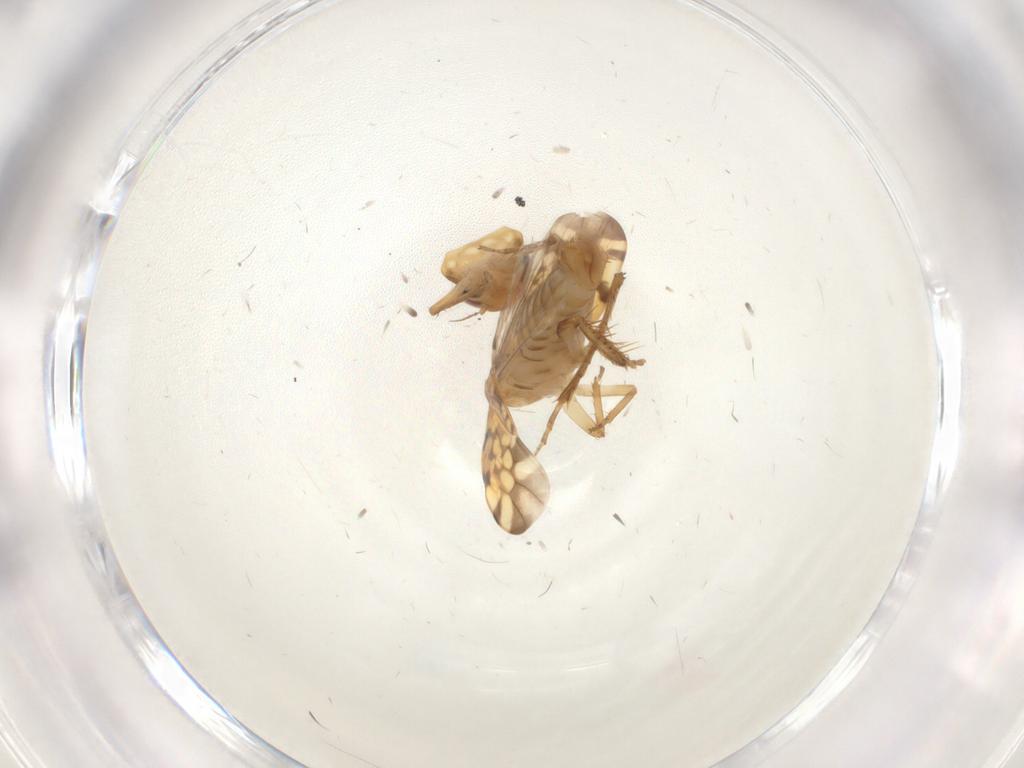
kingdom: Animalia
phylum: Arthropoda
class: Insecta
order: Hemiptera
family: Cicadellidae
